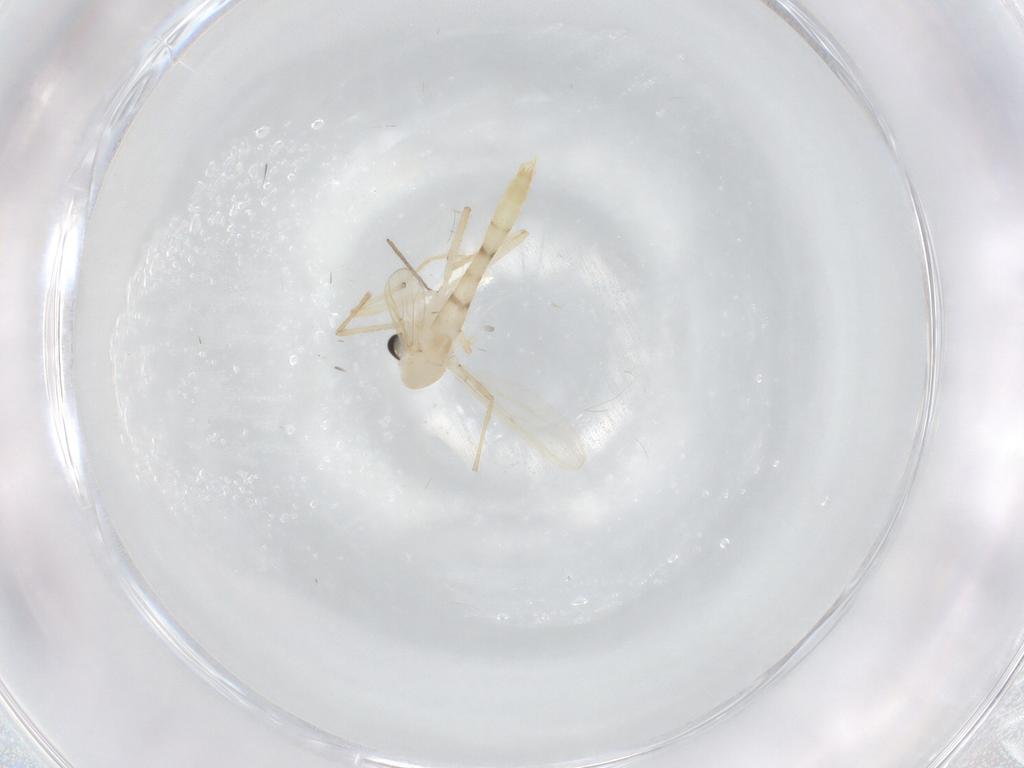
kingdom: Animalia
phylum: Arthropoda
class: Insecta
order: Diptera
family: Chironomidae
